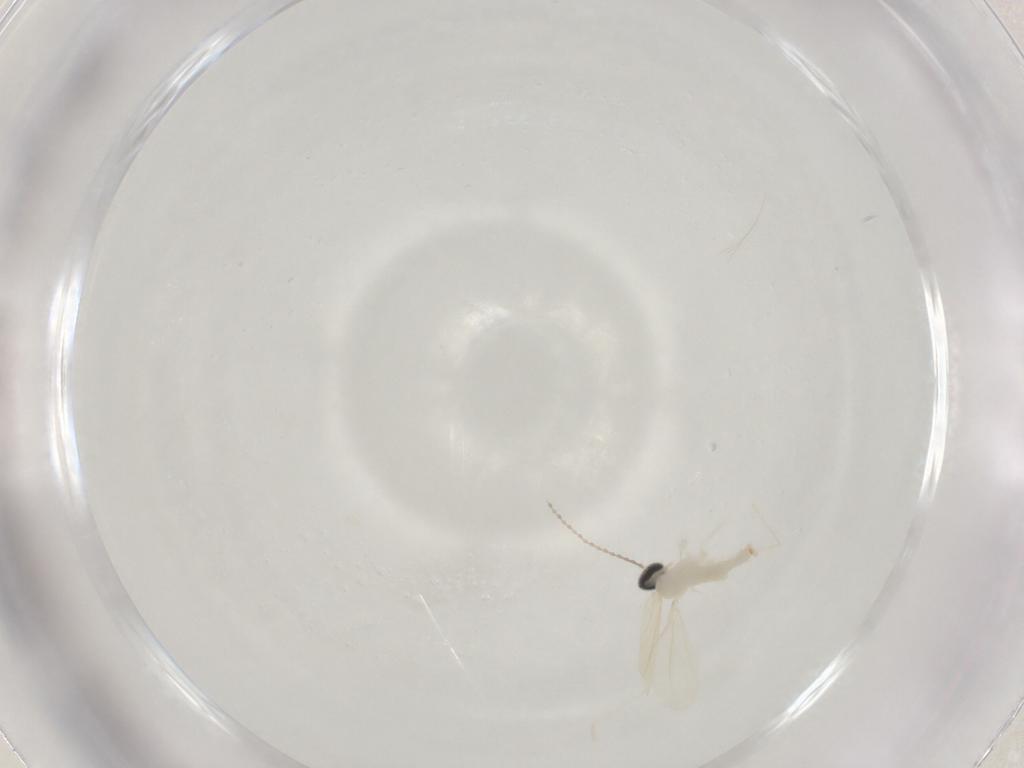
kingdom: Animalia
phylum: Arthropoda
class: Insecta
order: Diptera
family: Cecidomyiidae
